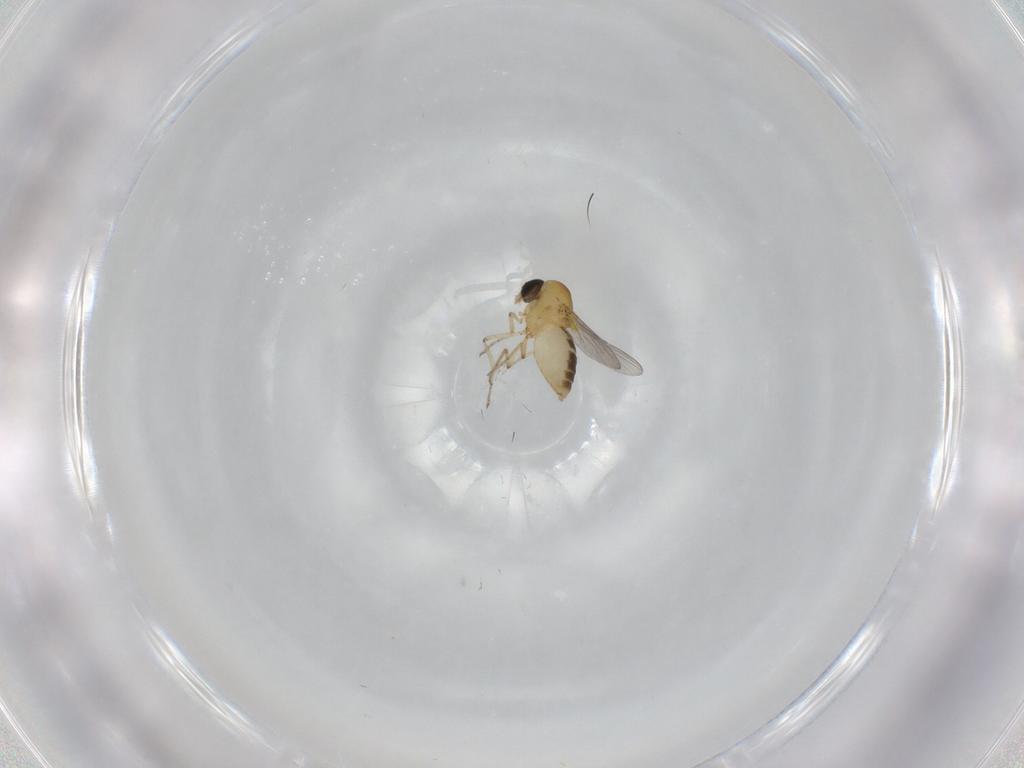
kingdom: Animalia
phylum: Arthropoda
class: Insecta
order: Diptera
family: Ceratopogonidae
